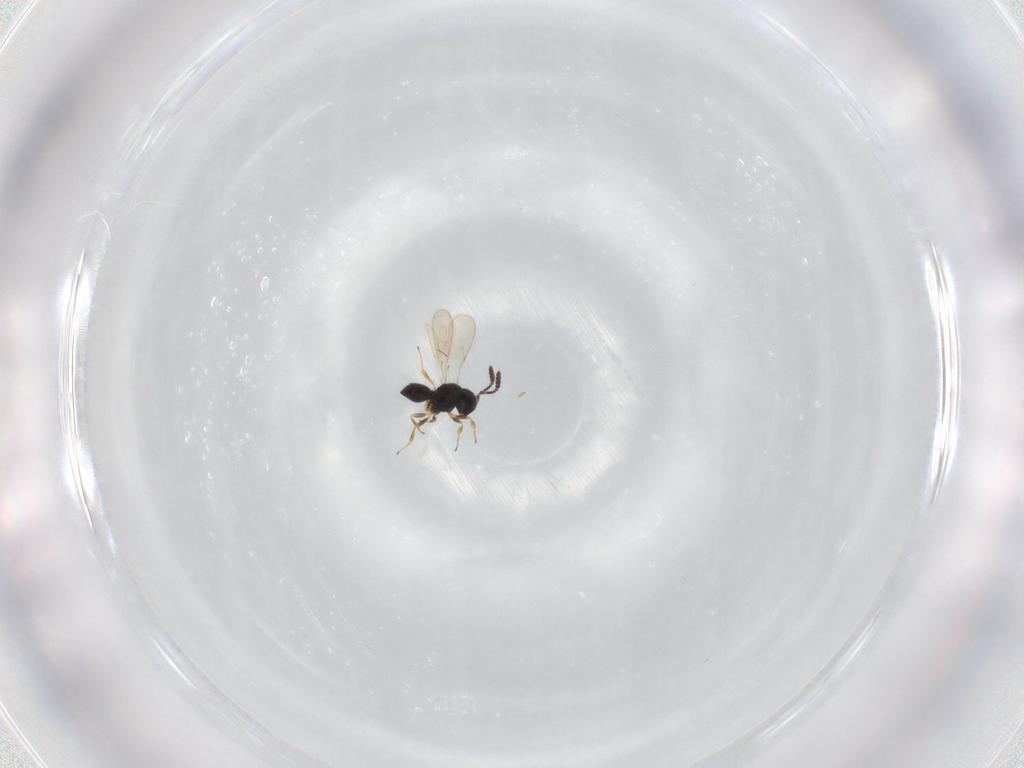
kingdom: Animalia
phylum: Arthropoda
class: Insecta
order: Hymenoptera
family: Scelionidae
